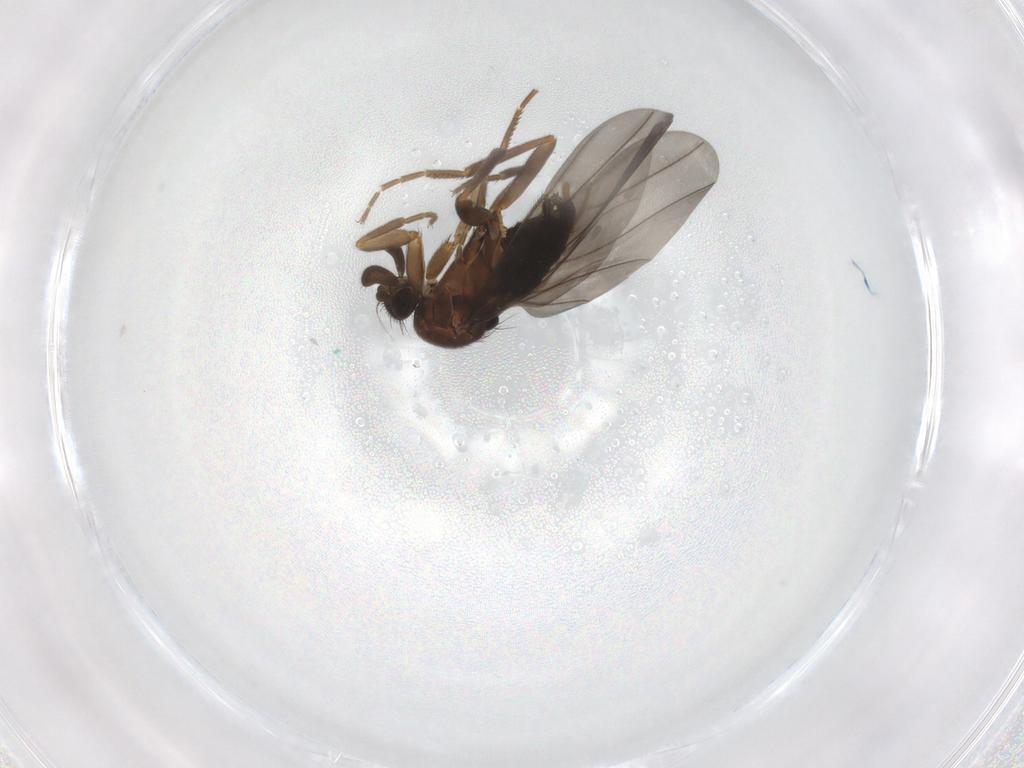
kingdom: Animalia
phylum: Arthropoda
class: Insecta
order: Diptera
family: Phoridae
